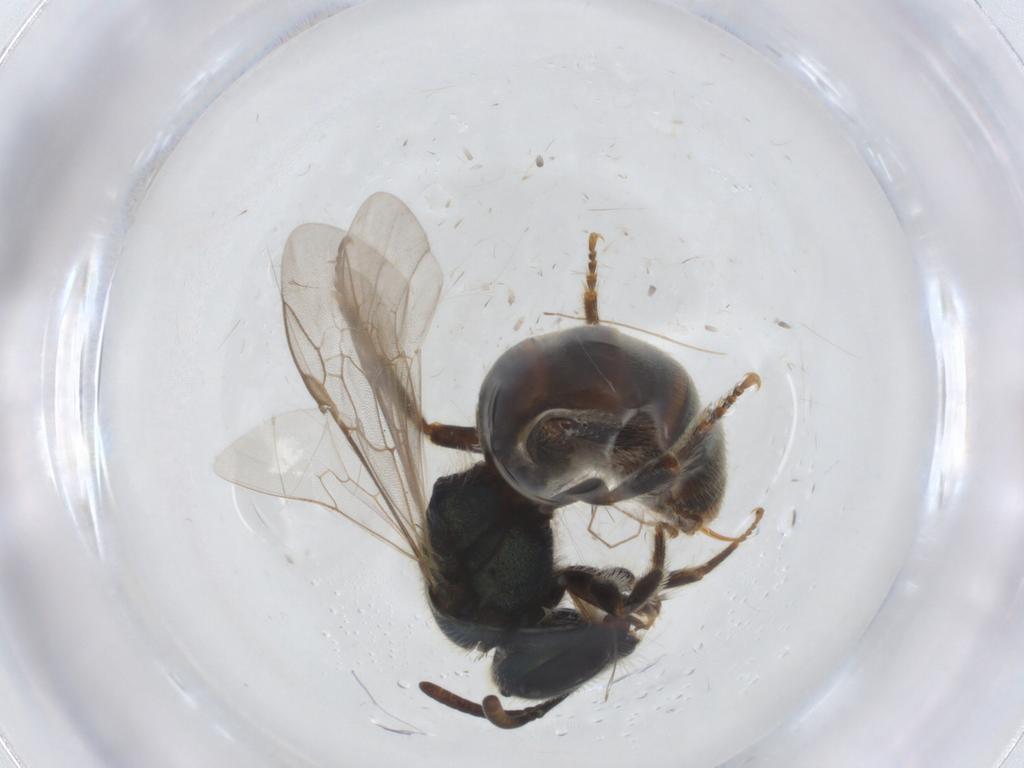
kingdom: Animalia
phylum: Arthropoda
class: Insecta
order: Hymenoptera
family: Halictidae
